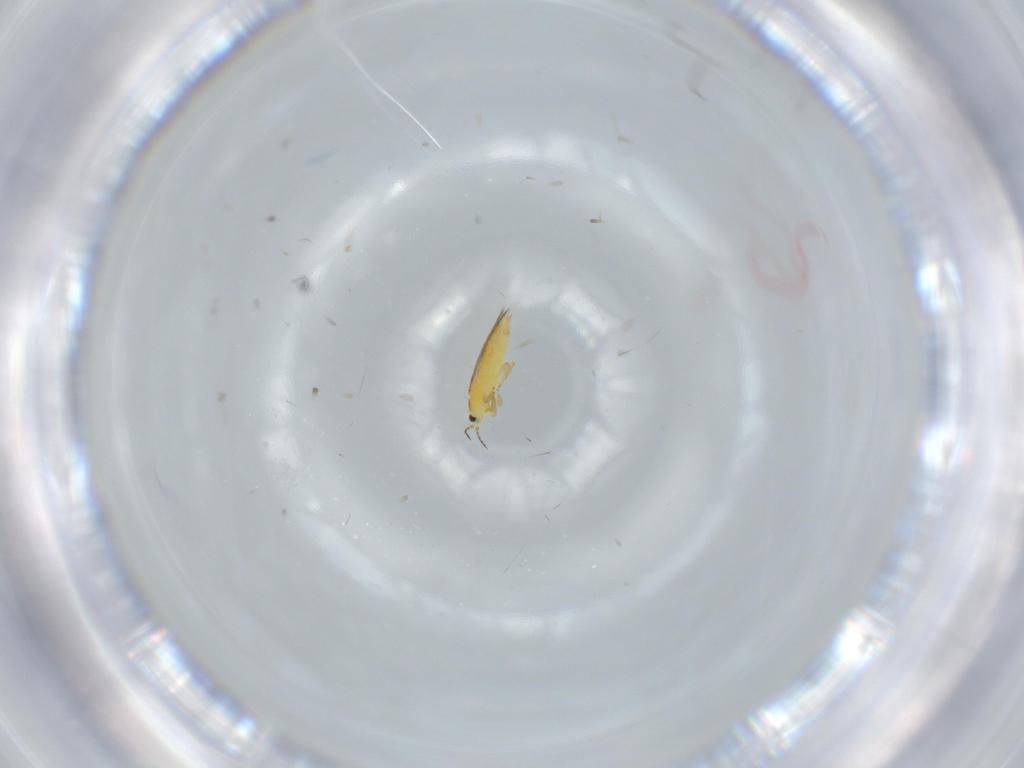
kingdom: Animalia
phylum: Arthropoda
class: Insecta
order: Thysanoptera
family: Thripidae
